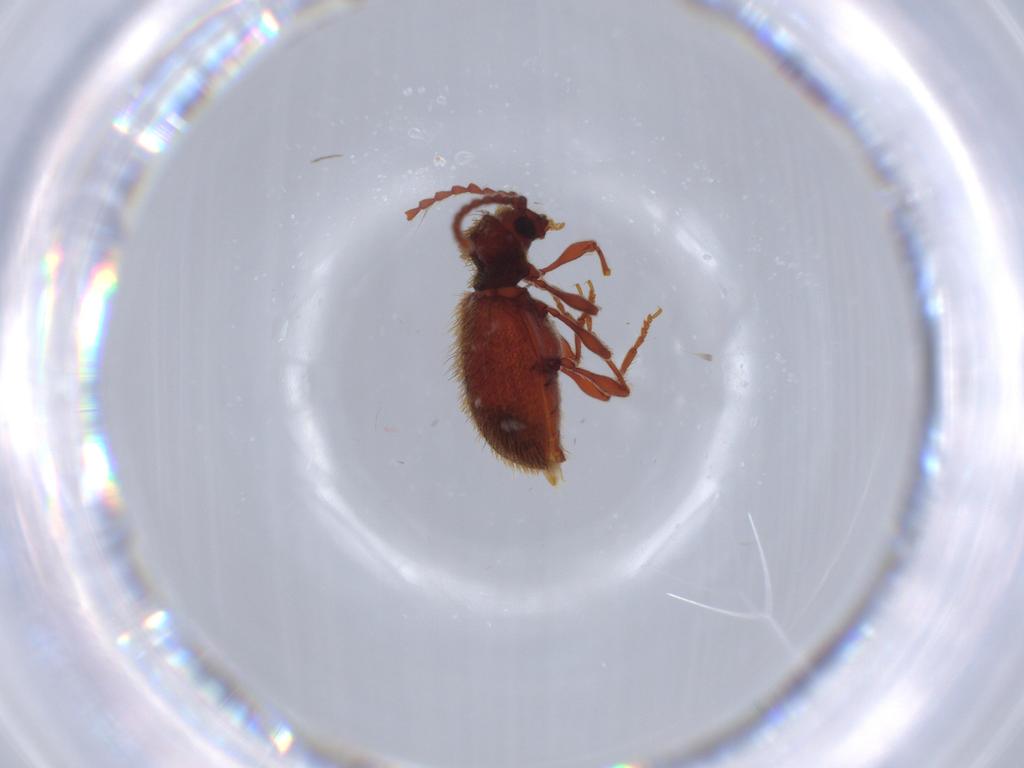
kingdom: Animalia
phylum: Arthropoda
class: Insecta
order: Coleoptera
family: Ptinidae
